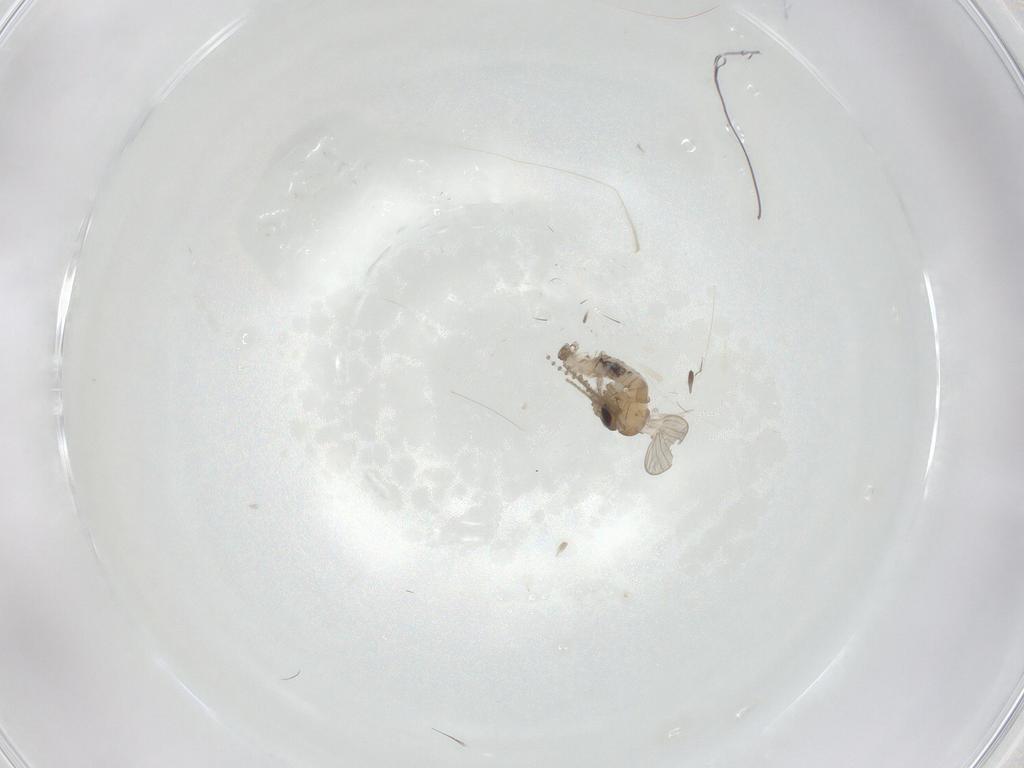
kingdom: Animalia
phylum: Arthropoda
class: Insecta
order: Diptera
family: Psychodidae
